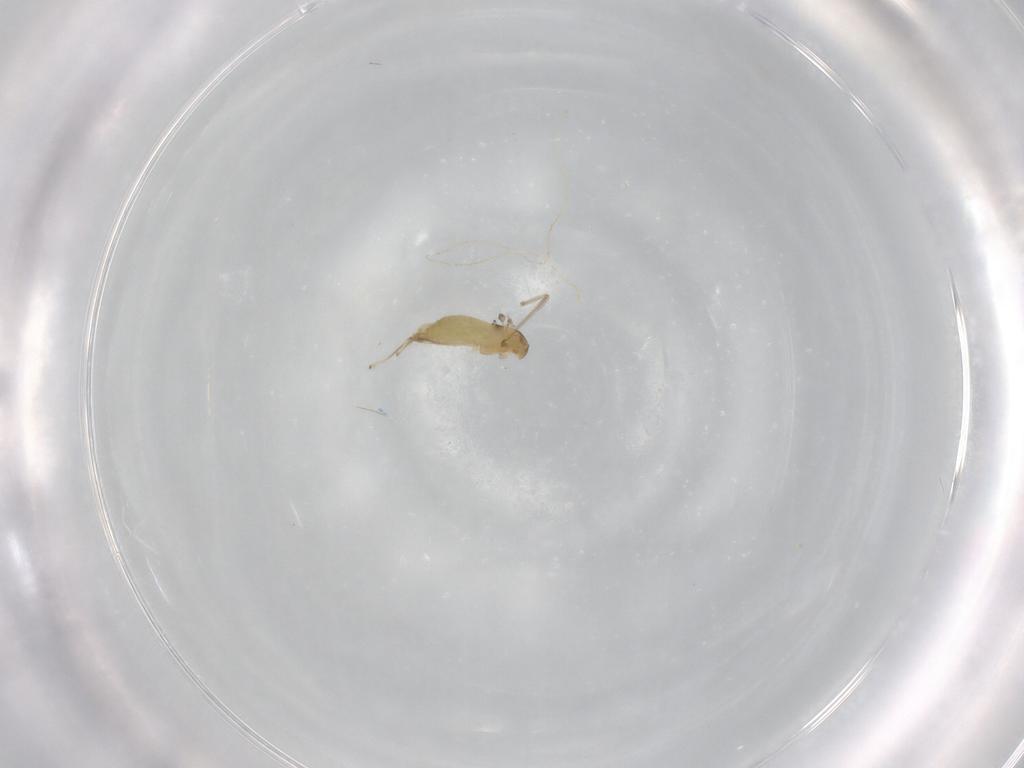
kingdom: Animalia
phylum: Arthropoda
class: Insecta
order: Diptera
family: Chironomidae
